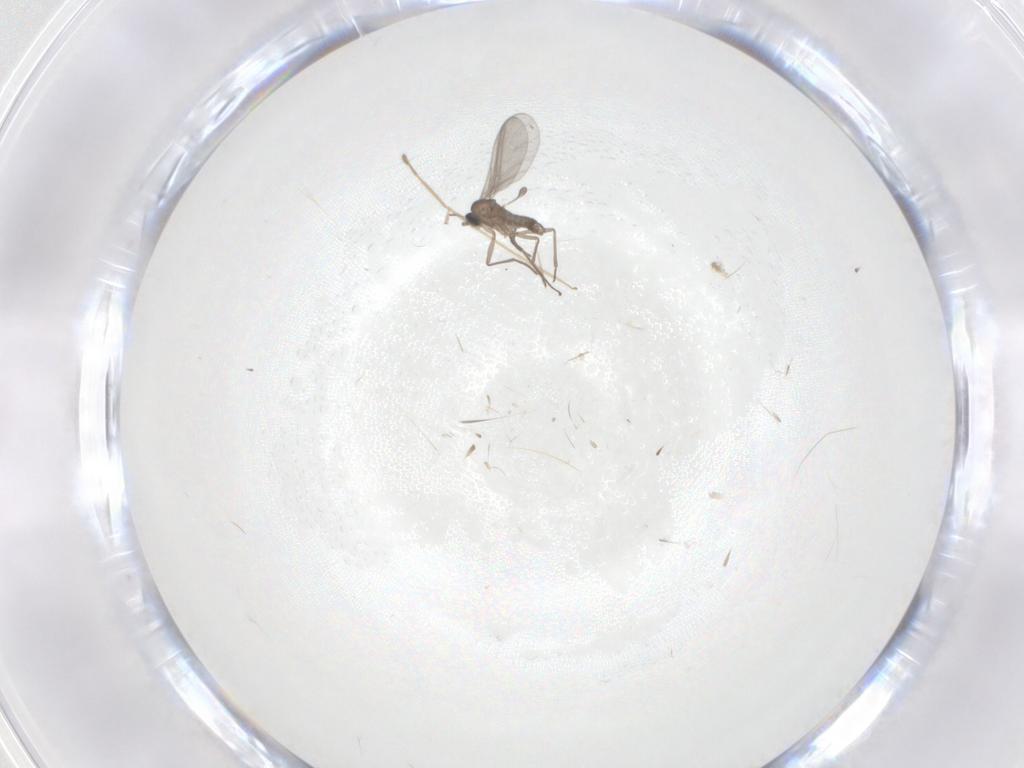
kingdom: Animalia
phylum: Arthropoda
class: Insecta
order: Diptera
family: Sciaridae
